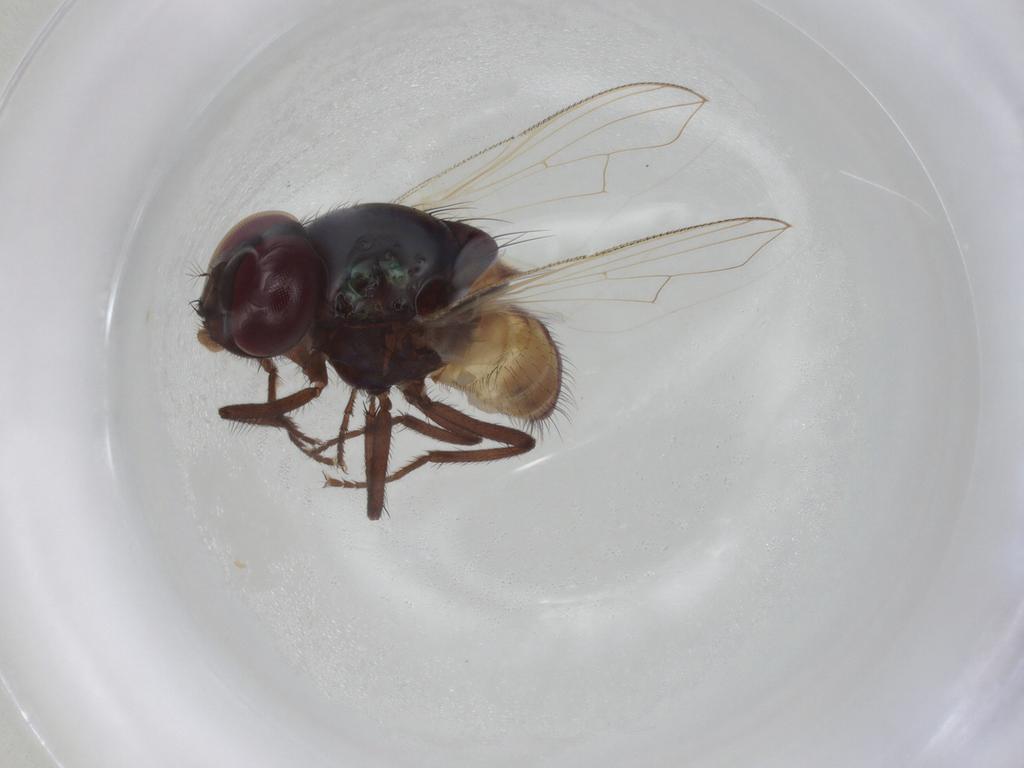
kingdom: Animalia
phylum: Arthropoda
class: Insecta
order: Diptera
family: Muscidae
